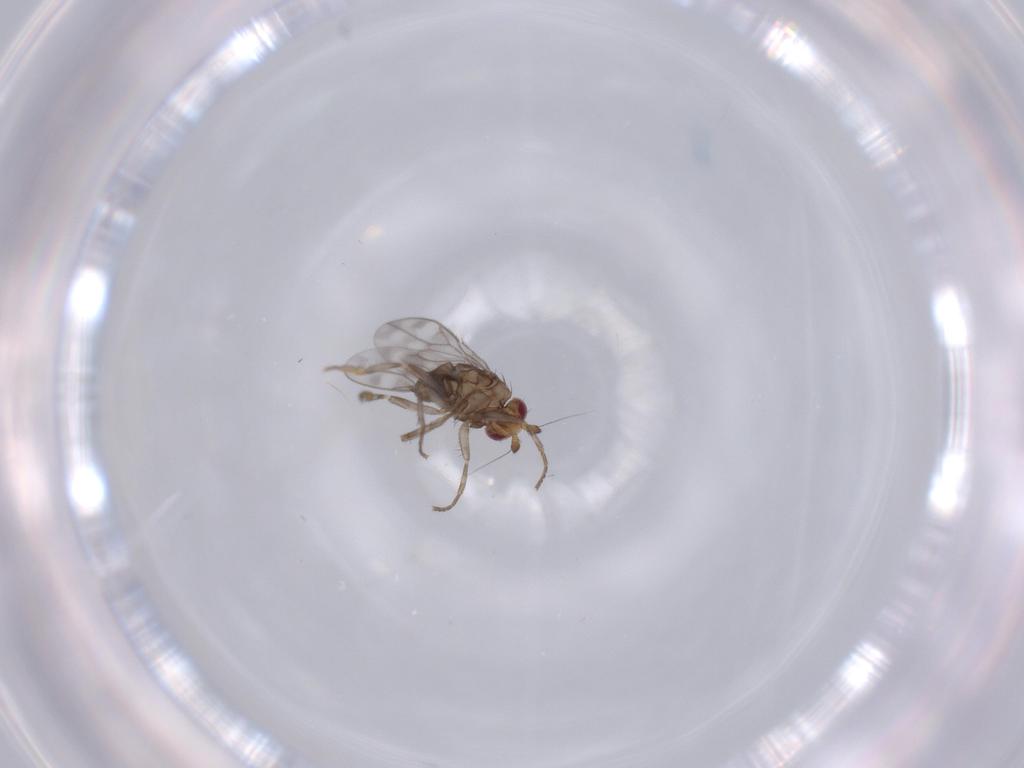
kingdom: Animalia
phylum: Arthropoda
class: Insecta
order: Diptera
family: Sphaeroceridae
